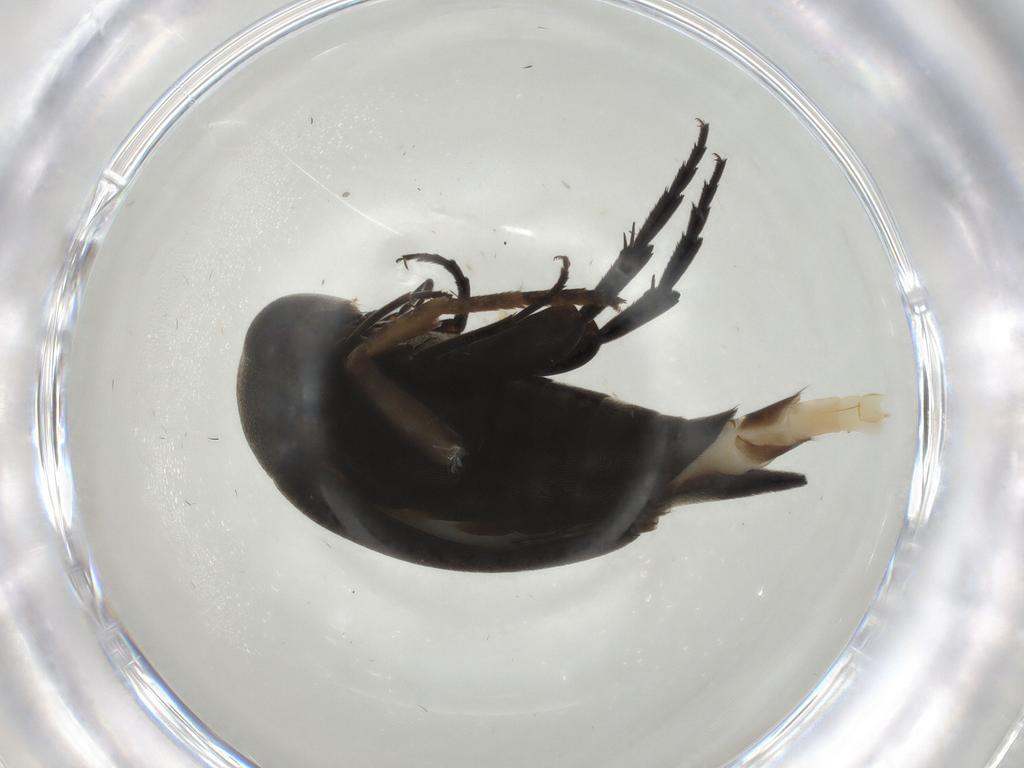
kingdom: Animalia
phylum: Arthropoda
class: Insecta
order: Coleoptera
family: Mordellidae
